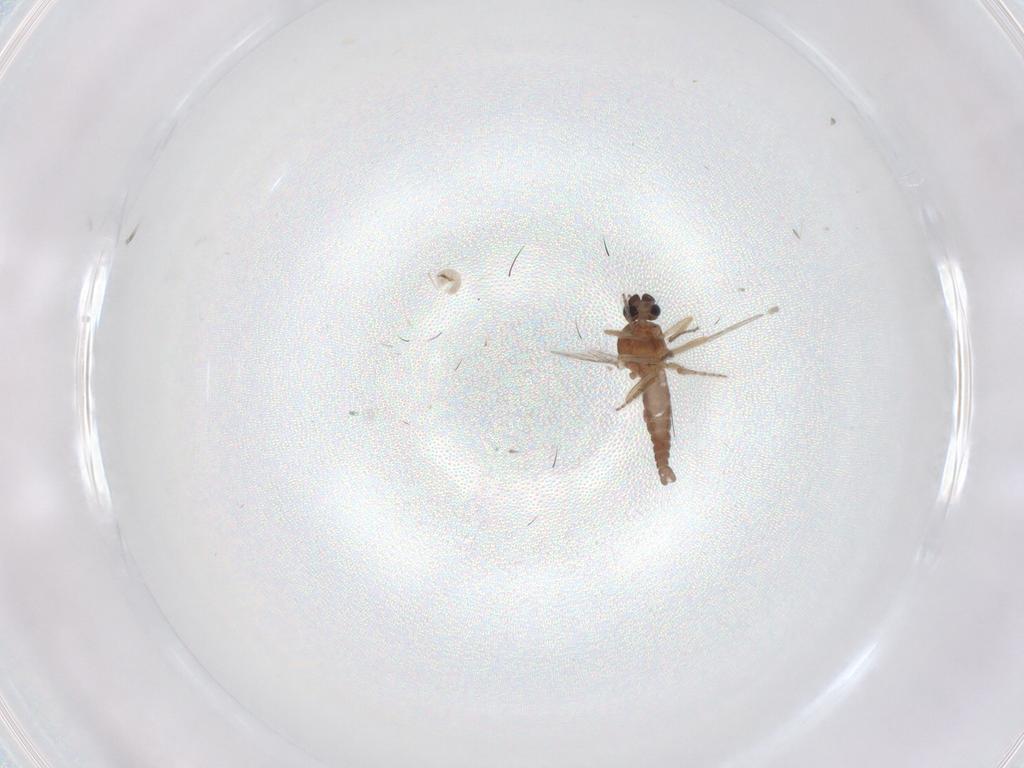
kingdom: Animalia
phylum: Arthropoda
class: Insecta
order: Diptera
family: Ceratopogonidae
